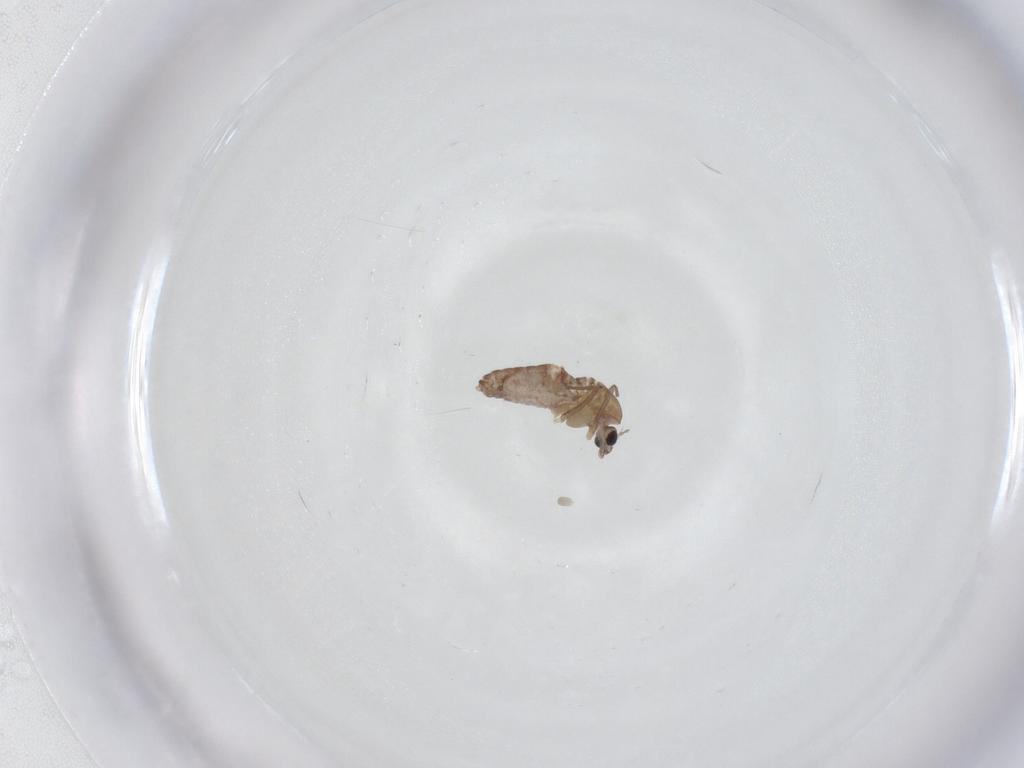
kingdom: Animalia
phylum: Arthropoda
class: Insecta
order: Diptera
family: Chironomidae
